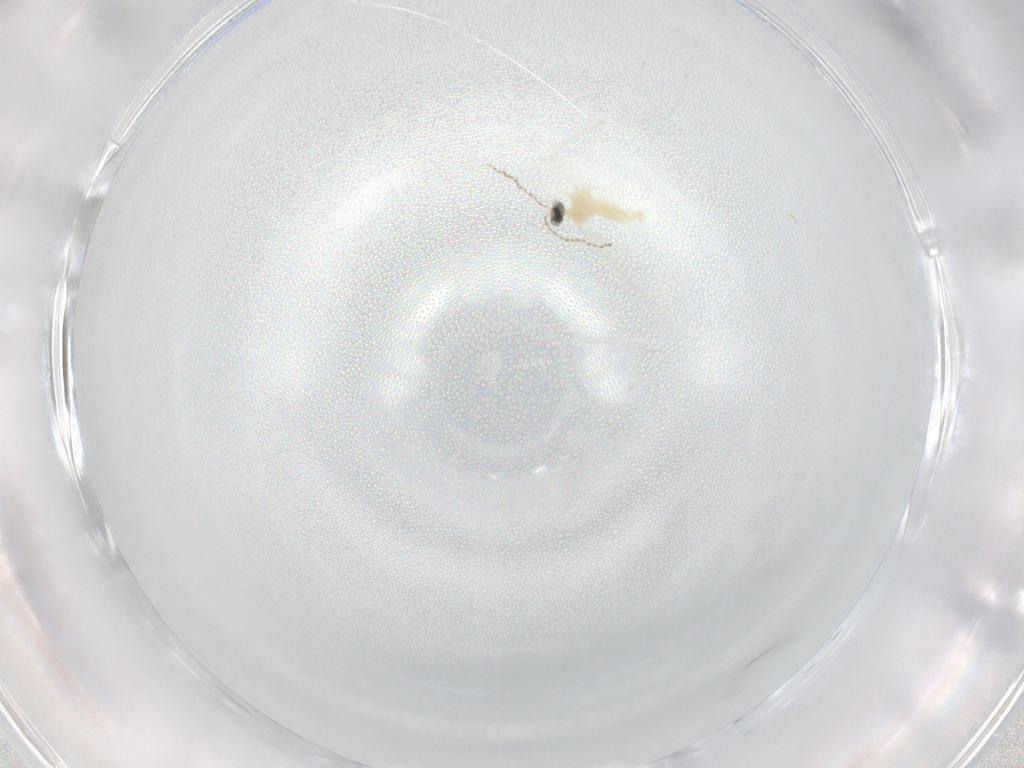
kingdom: Animalia
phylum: Arthropoda
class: Insecta
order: Diptera
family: Cecidomyiidae
